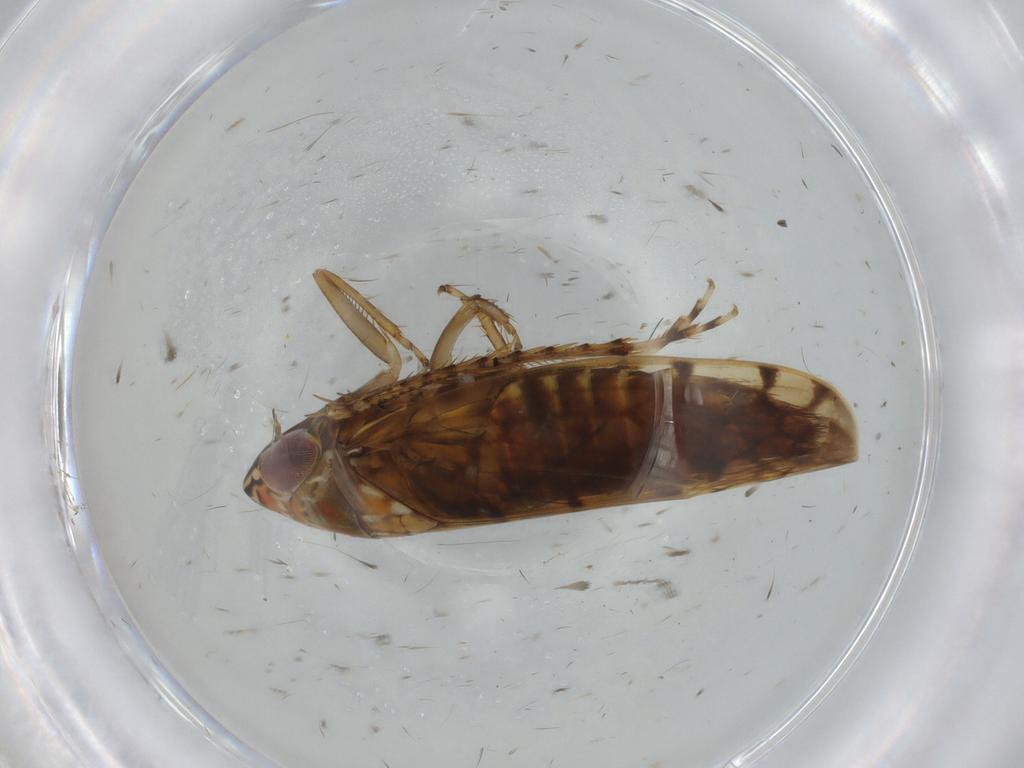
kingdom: Animalia
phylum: Arthropoda
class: Insecta
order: Hemiptera
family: Cicadellidae
